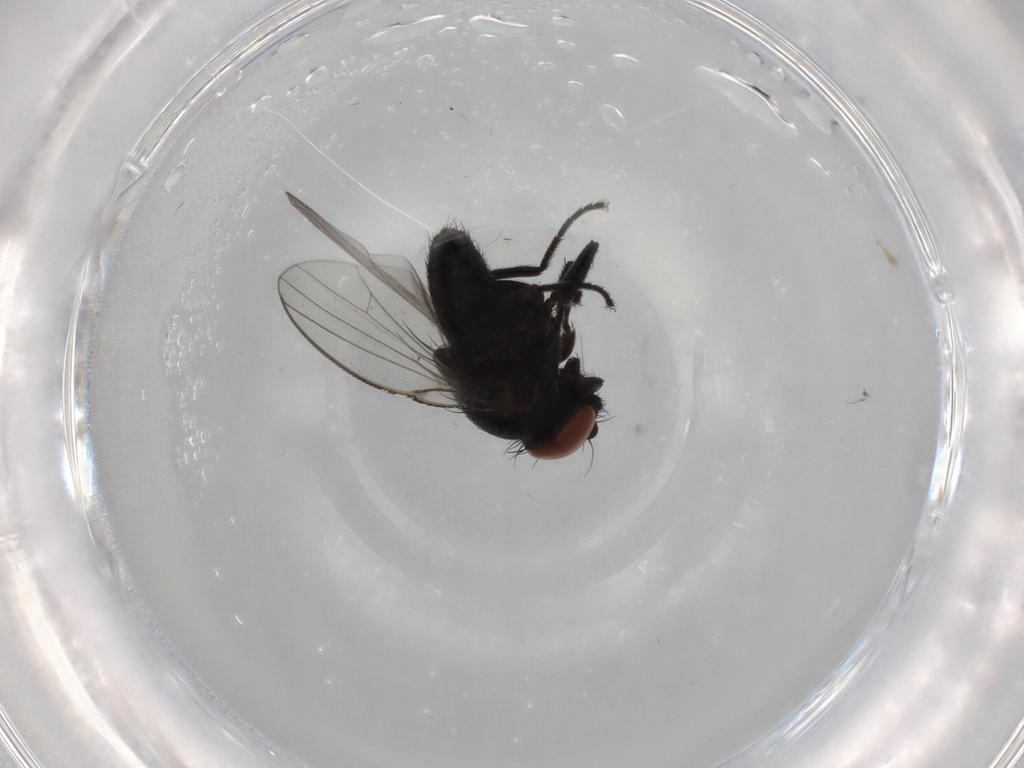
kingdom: Animalia
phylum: Arthropoda
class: Insecta
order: Diptera
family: Milichiidae
